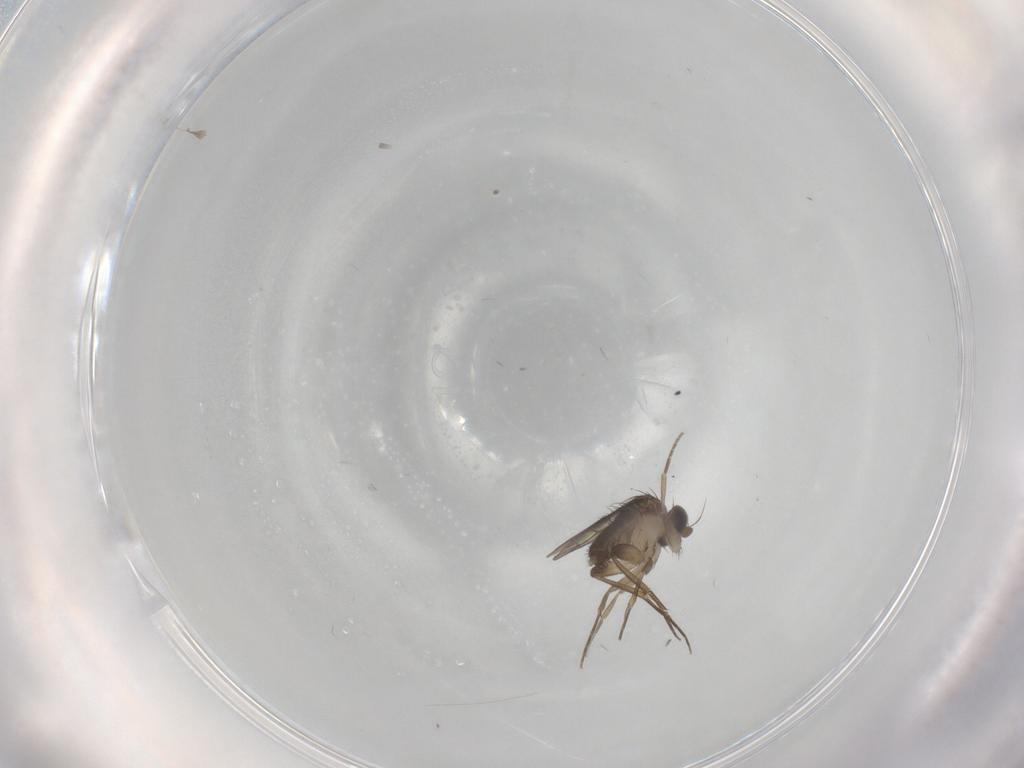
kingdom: Animalia
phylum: Arthropoda
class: Insecta
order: Diptera
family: Phoridae
